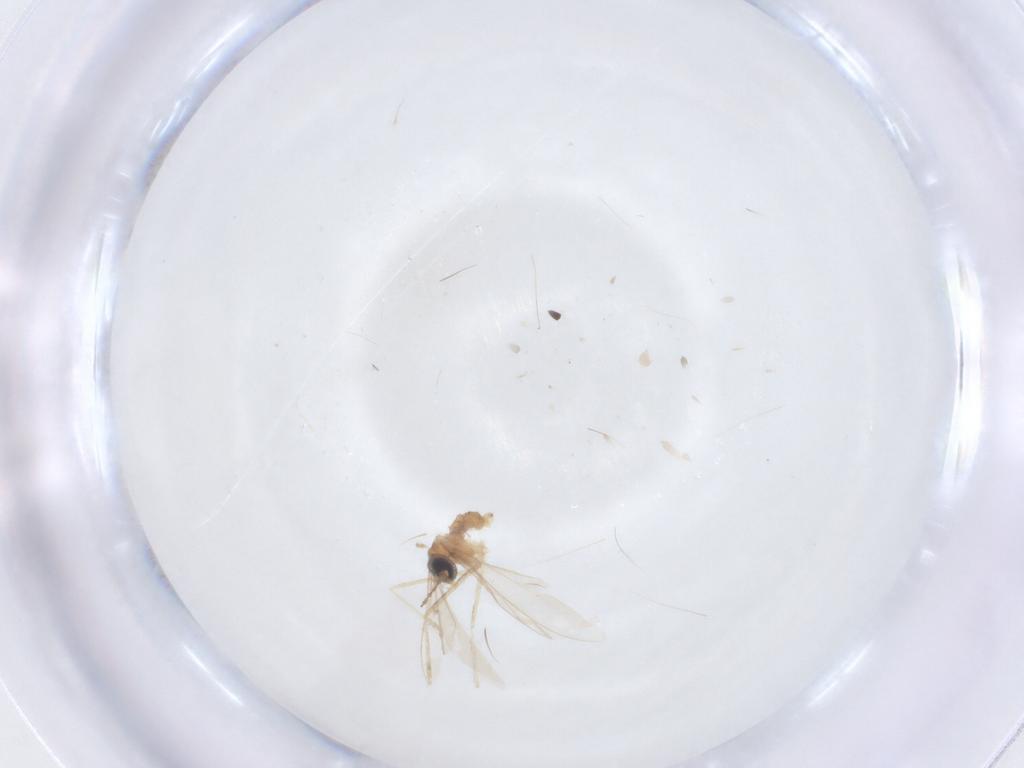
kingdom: Animalia
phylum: Arthropoda
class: Insecta
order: Diptera
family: Cecidomyiidae
